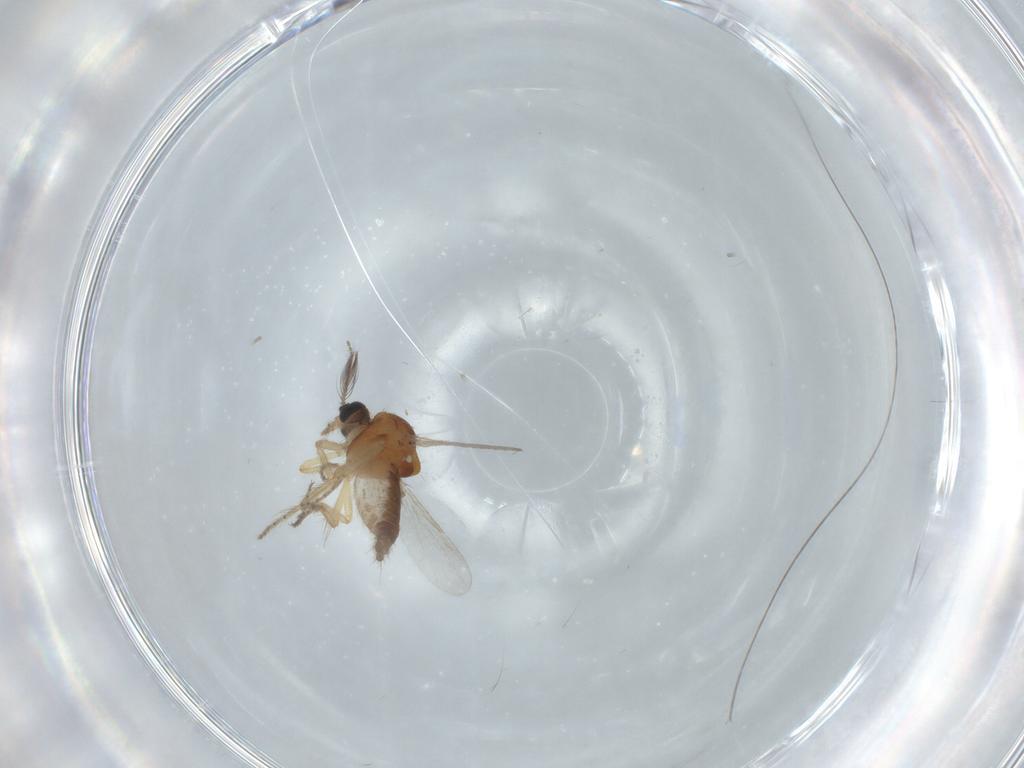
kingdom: Animalia
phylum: Arthropoda
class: Insecta
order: Diptera
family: Ceratopogonidae
